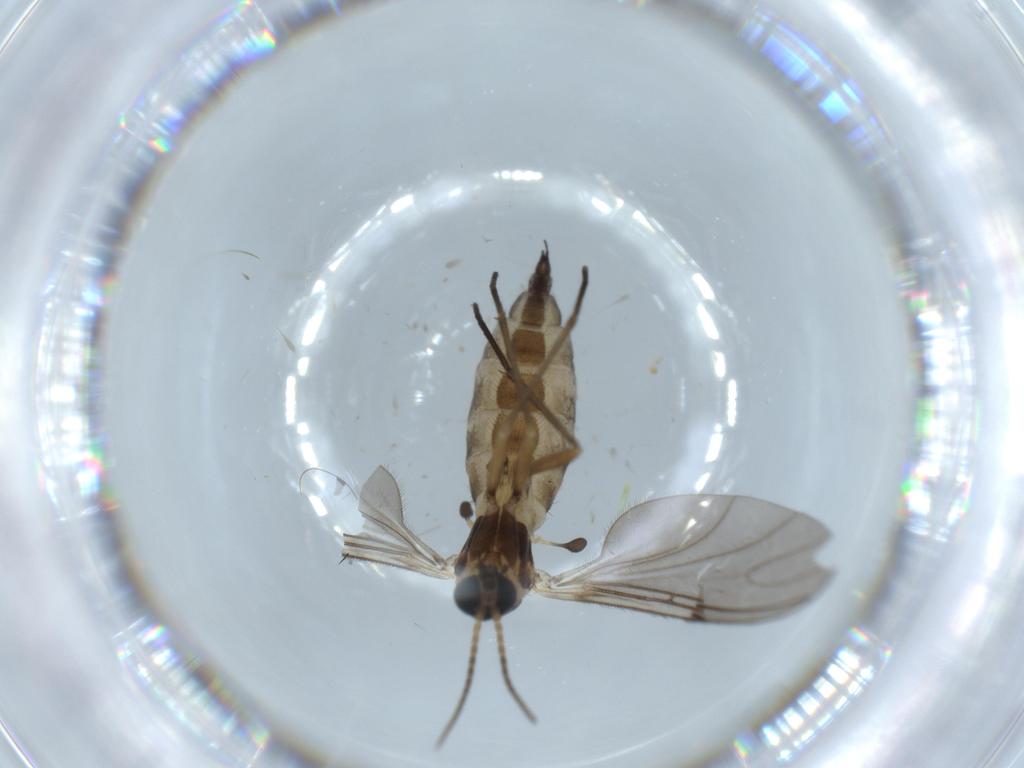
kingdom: Animalia
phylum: Arthropoda
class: Insecta
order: Diptera
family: Sciaridae
